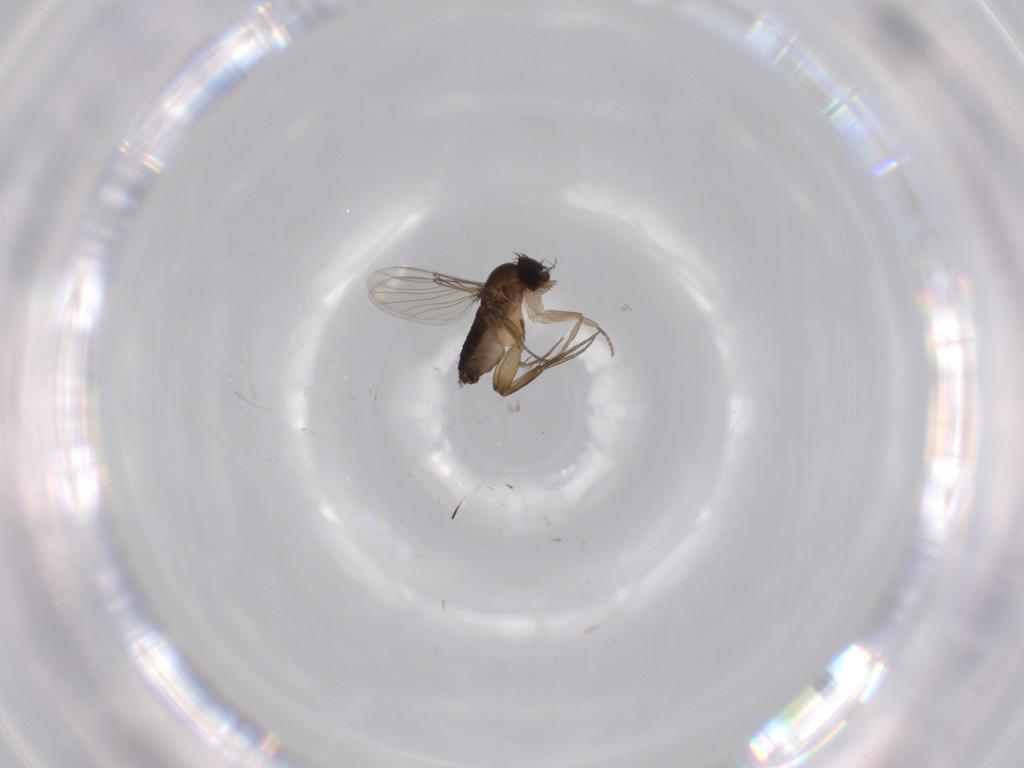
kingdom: Animalia
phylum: Arthropoda
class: Insecta
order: Diptera
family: Phoridae
